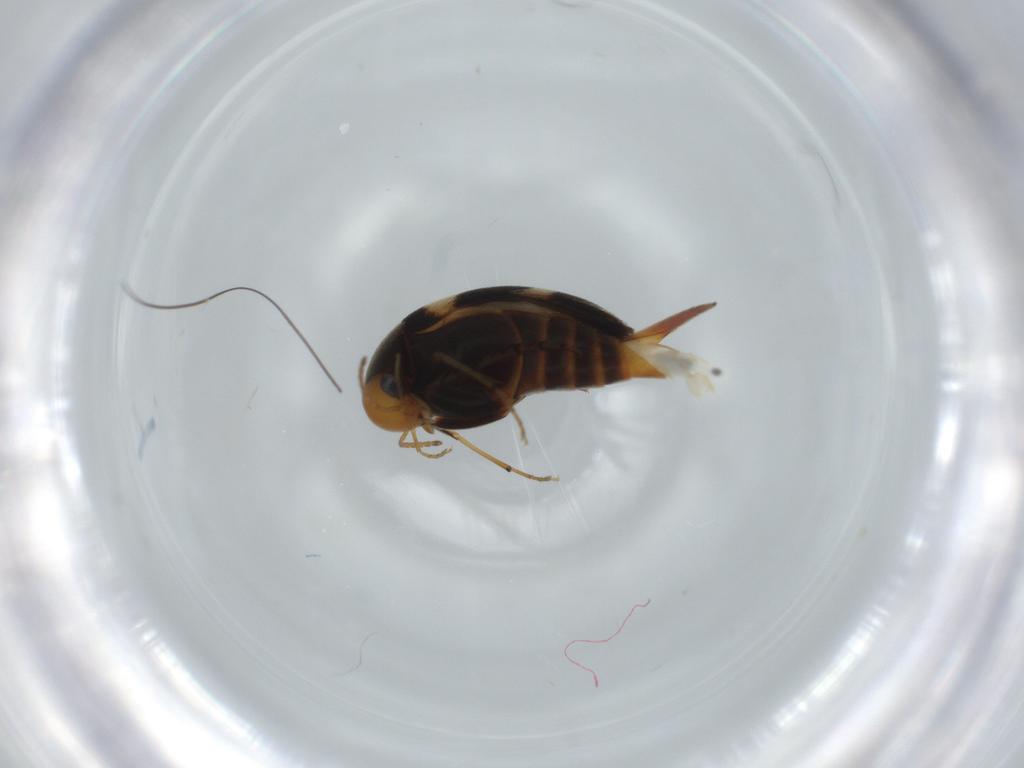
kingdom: Animalia
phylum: Arthropoda
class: Insecta
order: Coleoptera
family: Mordellidae
